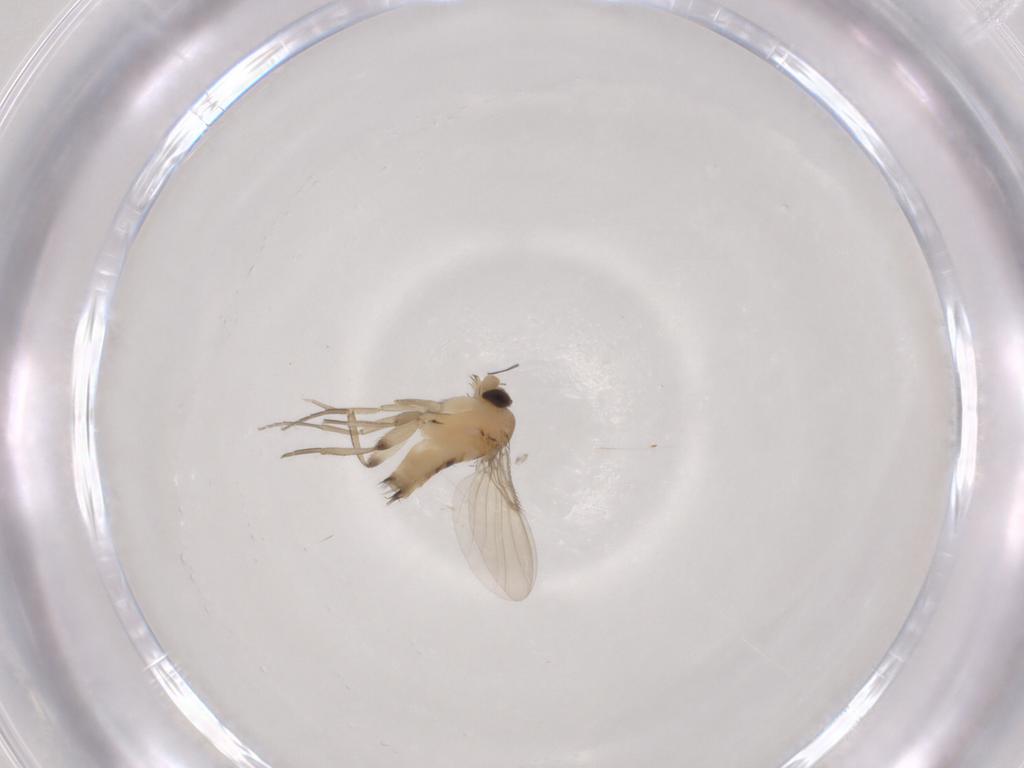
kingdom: Animalia
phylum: Arthropoda
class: Insecta
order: Diptera
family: Phoridae
